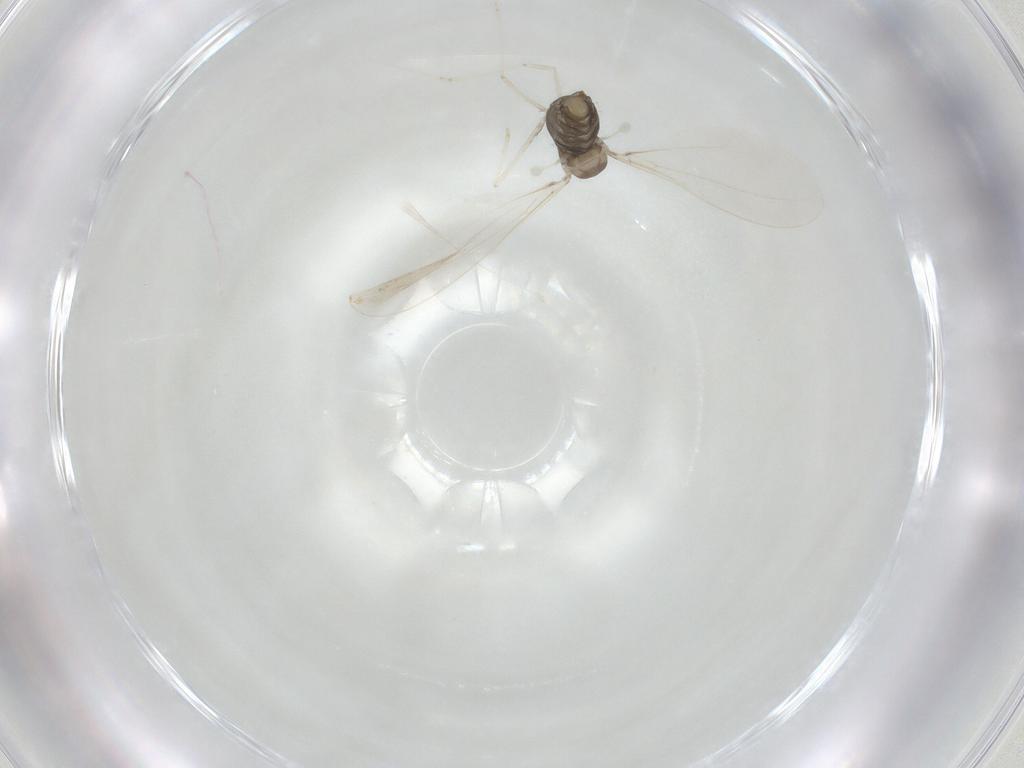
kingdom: Animalia
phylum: Arthropoda
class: Insecta
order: Diptera
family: Cecidomyiidae
